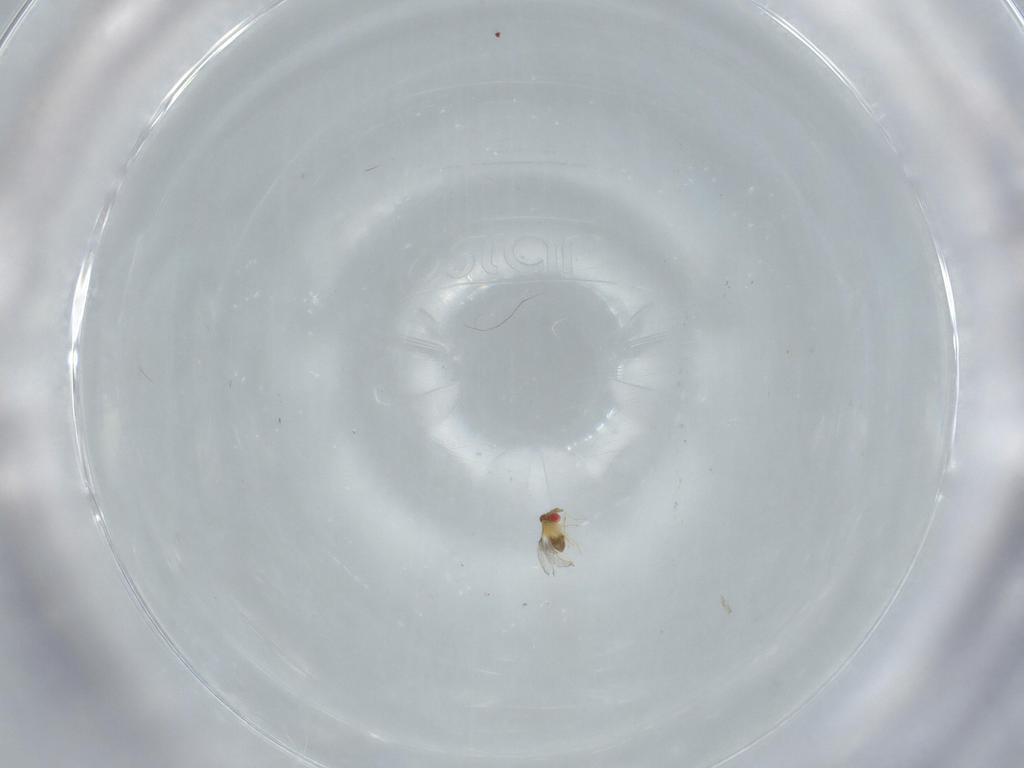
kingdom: Animalia
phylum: Arthropoda
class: Insecta
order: Hymenoptera
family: Trichogrammatidae
